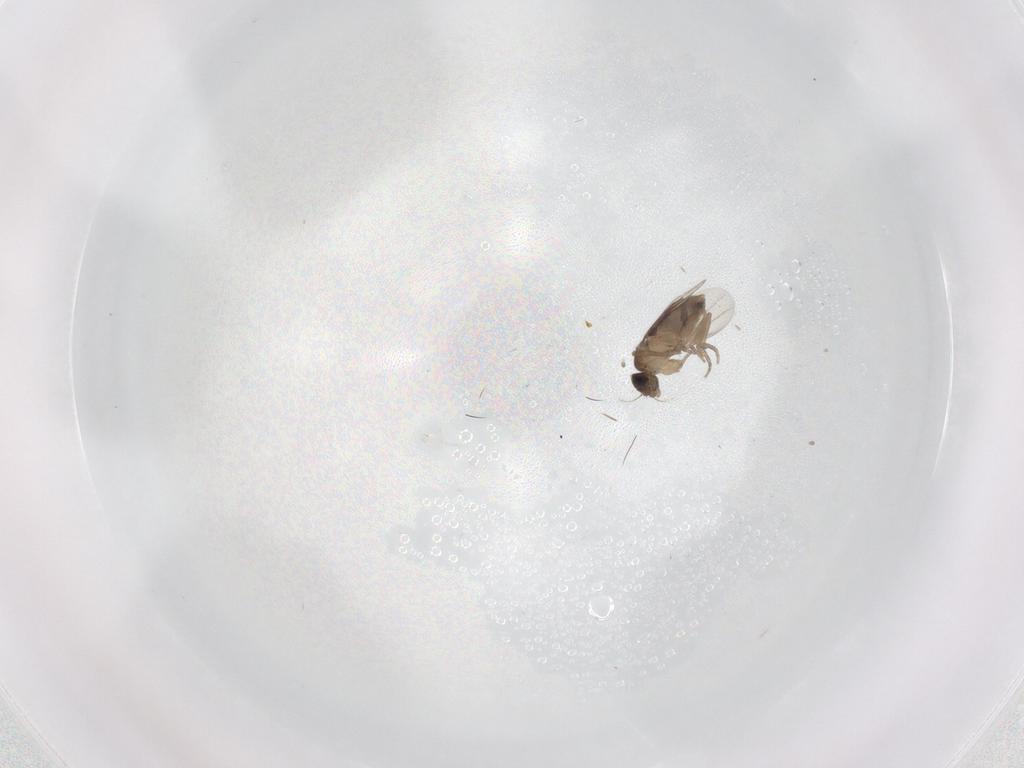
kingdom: Animalia
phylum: Arthropoda
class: Insecta
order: Diptera
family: Phoridae
